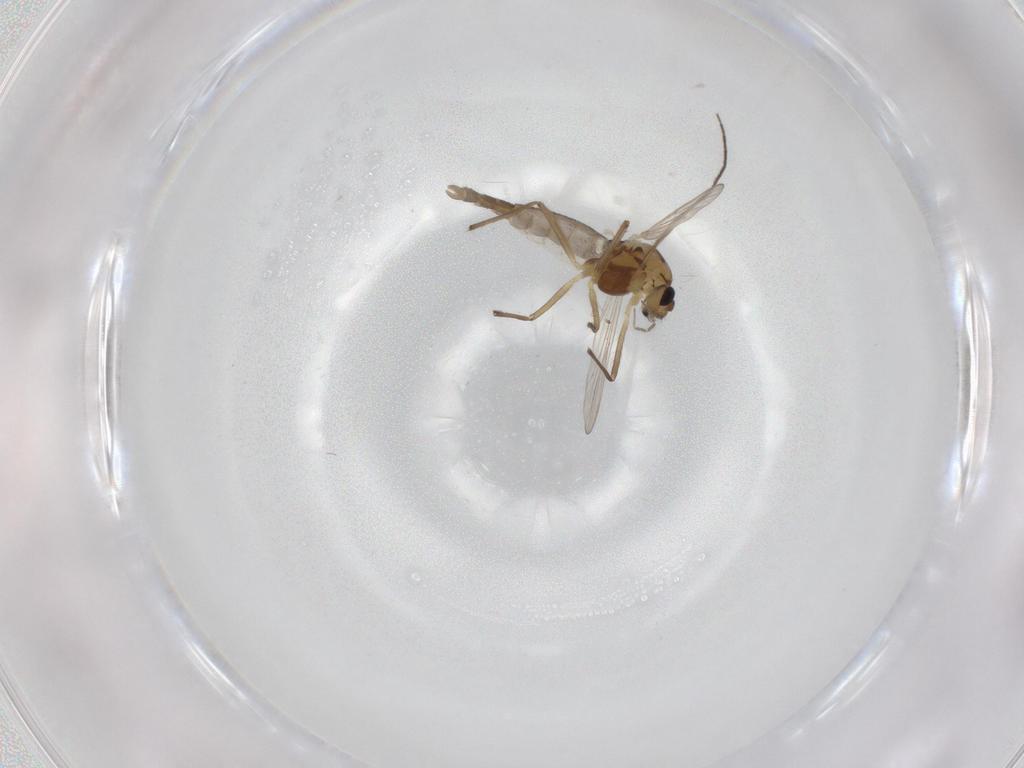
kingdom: Animalia
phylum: Arthropoda
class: Insecta
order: Diptera
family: Chironomidae
